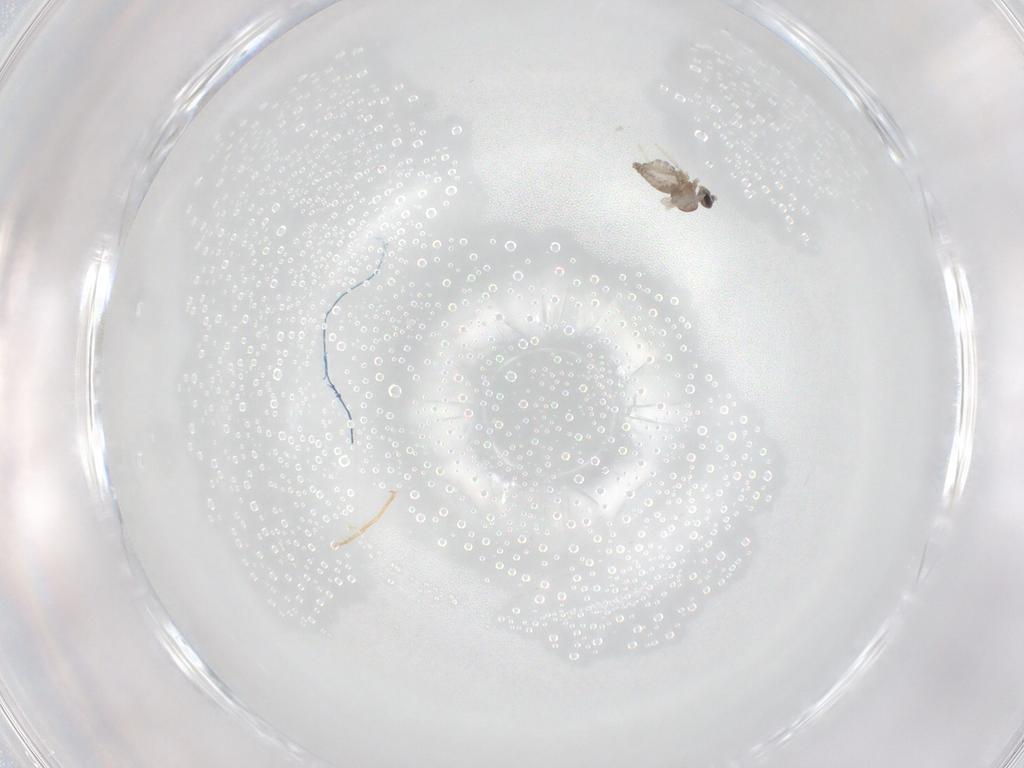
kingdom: Animalia
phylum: Arthropoda
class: Insecta
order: Diptera
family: Cecidomyiidae
